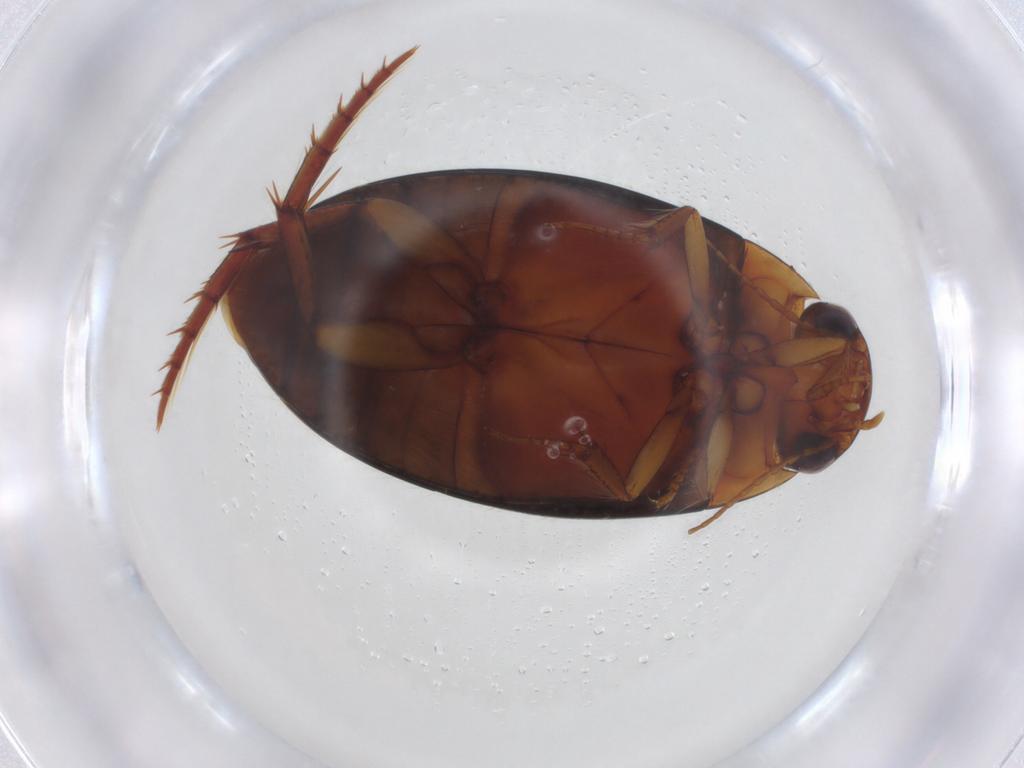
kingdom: Animalia
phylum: Arthropoda
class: Insecta
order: Coleoptera
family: Dytiscidae
